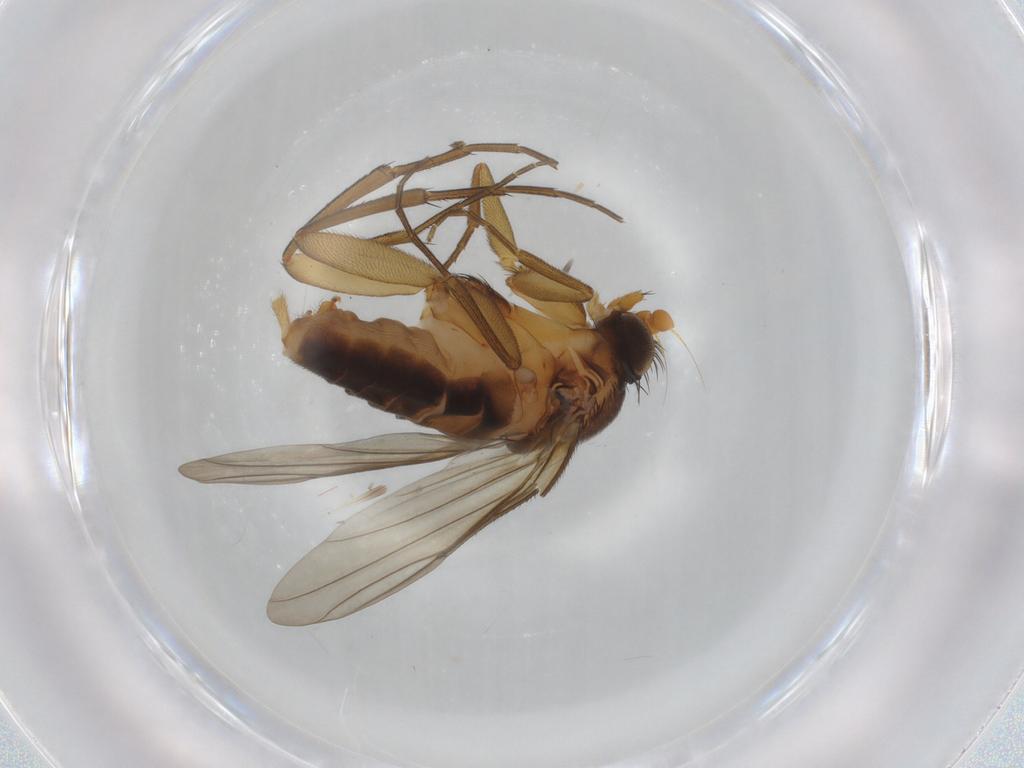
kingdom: Animalia
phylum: Arthropoda
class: Insecta
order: Diptera
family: Phoridae
